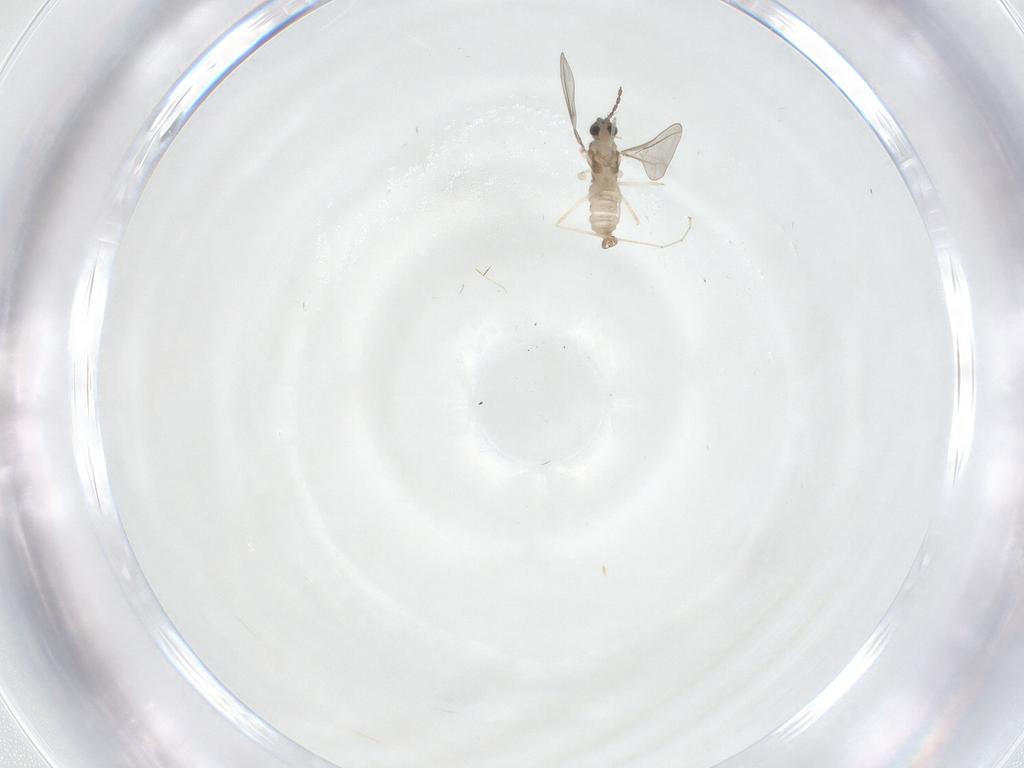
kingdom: Animalia
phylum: Arthropoda
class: Insecta
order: Diptera
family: Cecidomyiidae
